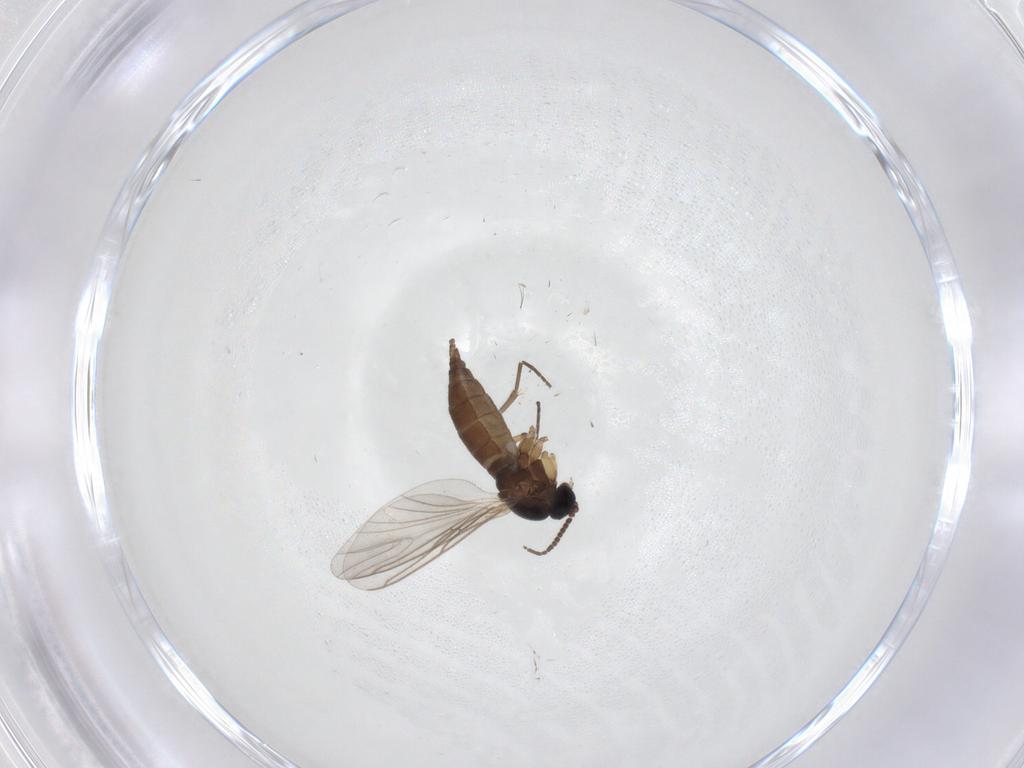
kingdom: Animalia
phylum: Arthropoda
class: Insecta
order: Diptera
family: Sciaridae
